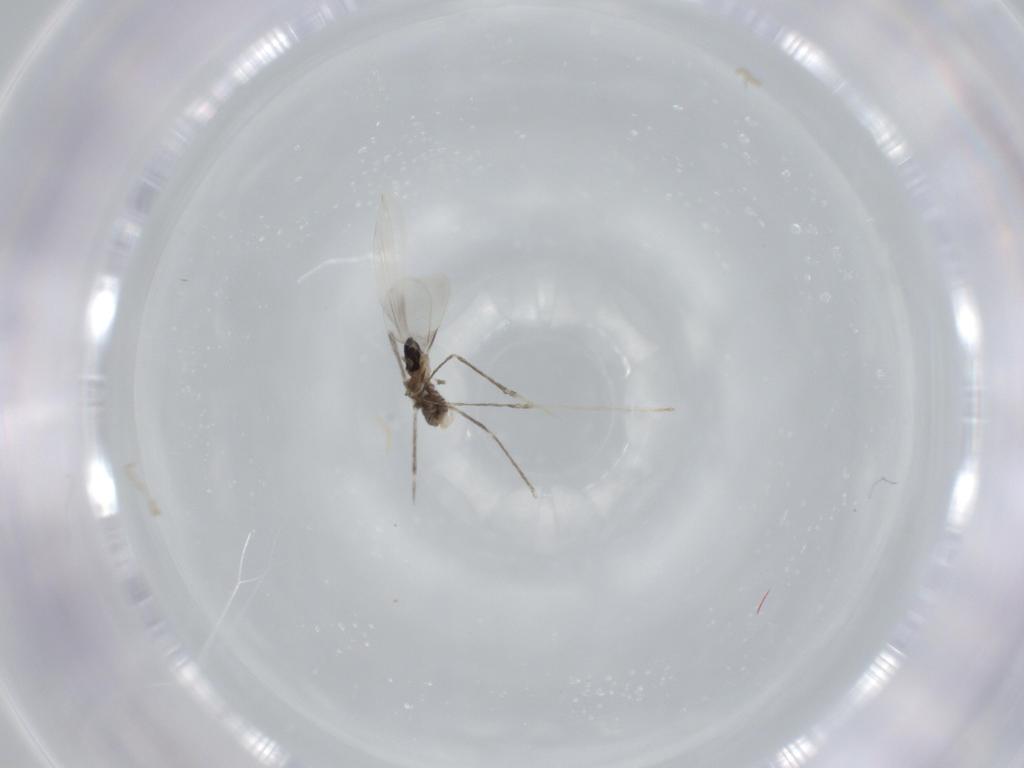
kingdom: Animalia
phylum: Arthropoda
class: Insecta
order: Diptera
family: Cecidomyiidae
